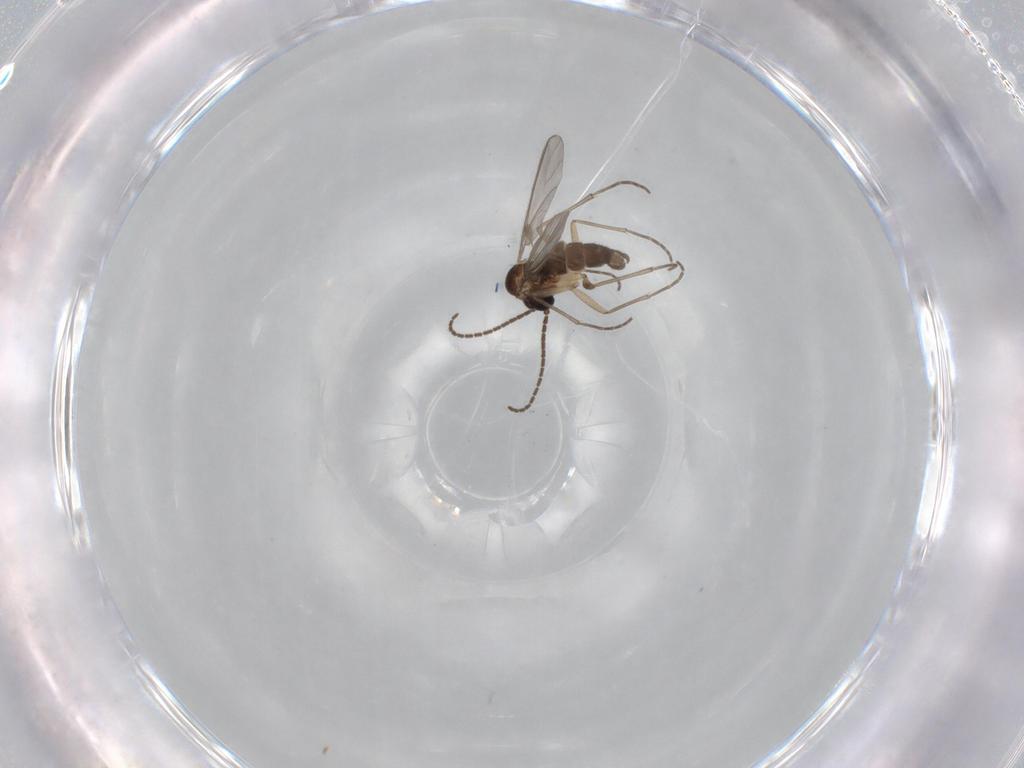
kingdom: Animalia
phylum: Arthropoda
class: Insecta
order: Diptera
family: Sciaridae
